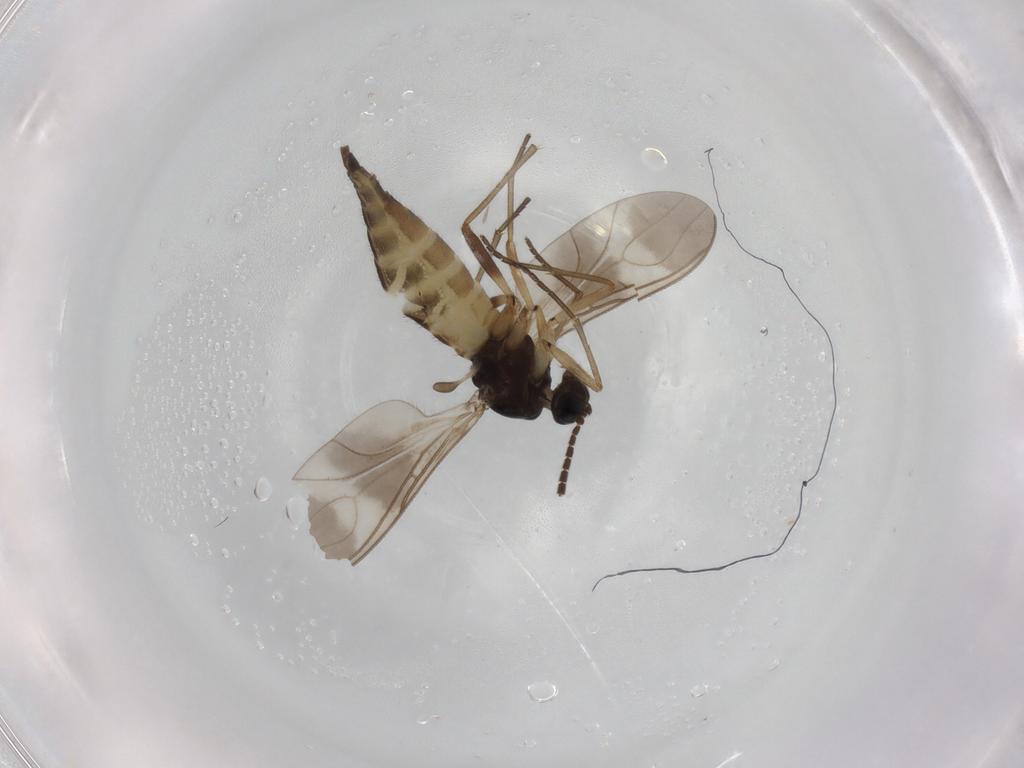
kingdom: Animalia
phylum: Arthropoda
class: Insecta
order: Diptera
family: Sciaridae
